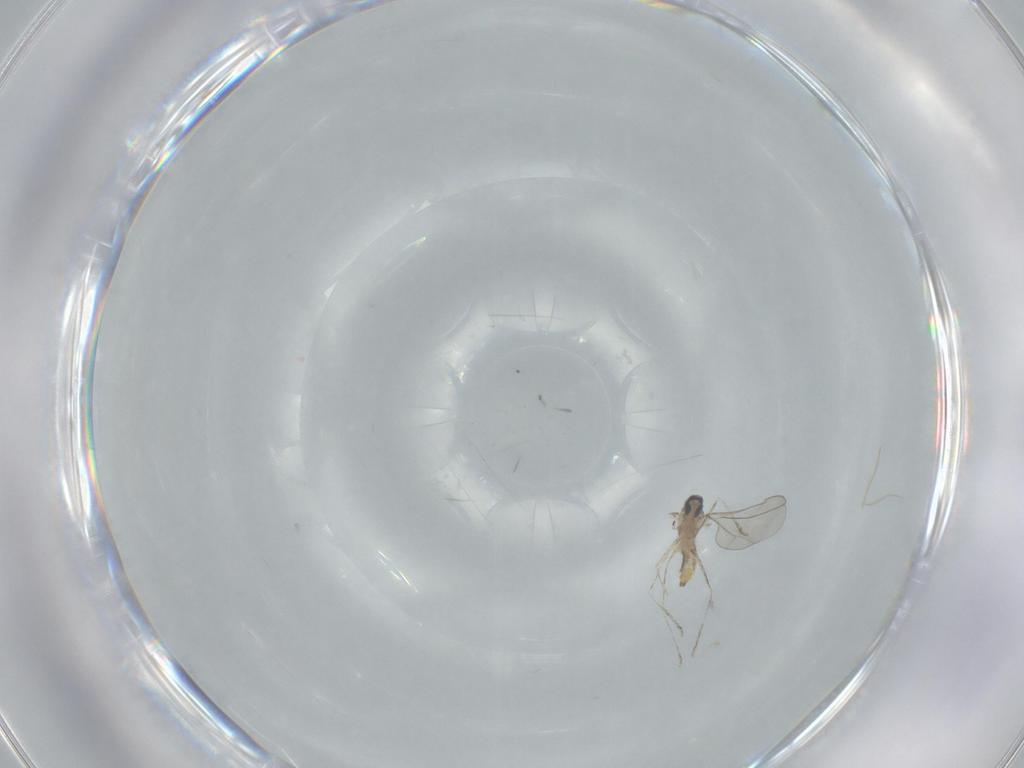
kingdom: Animalia
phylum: Arthropoda
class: Insecta
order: Diptera
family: Cecidomyiidae
